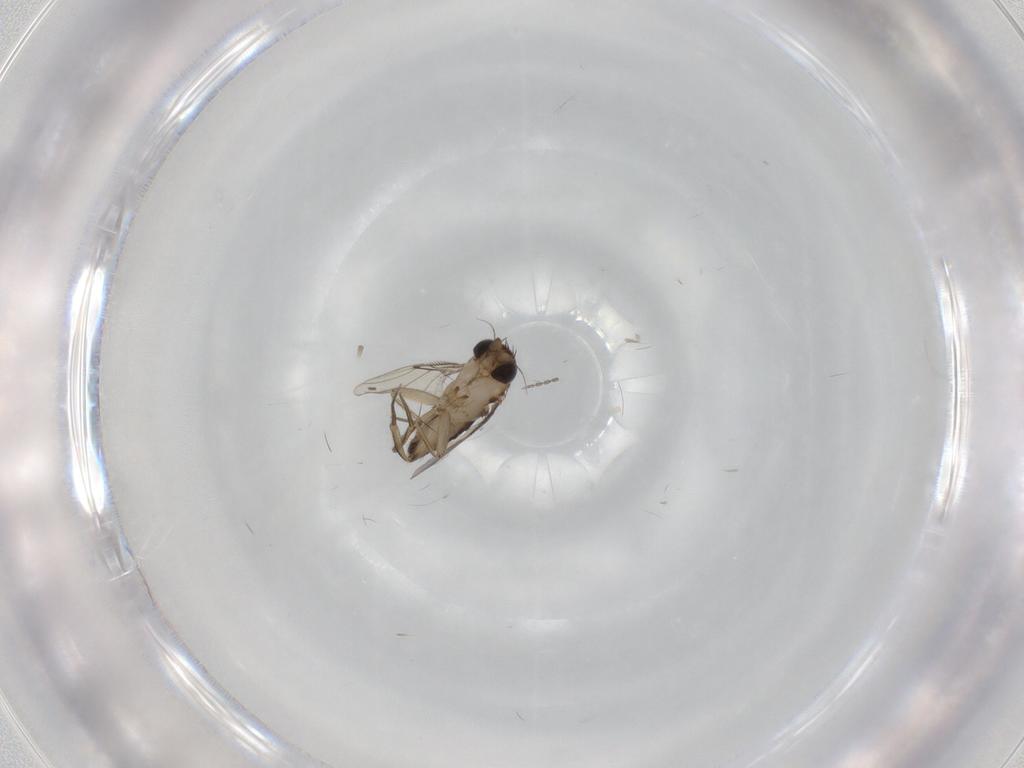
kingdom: Animalia
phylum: Arthropoda
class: Insecta
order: Diptera
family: Phoridae
